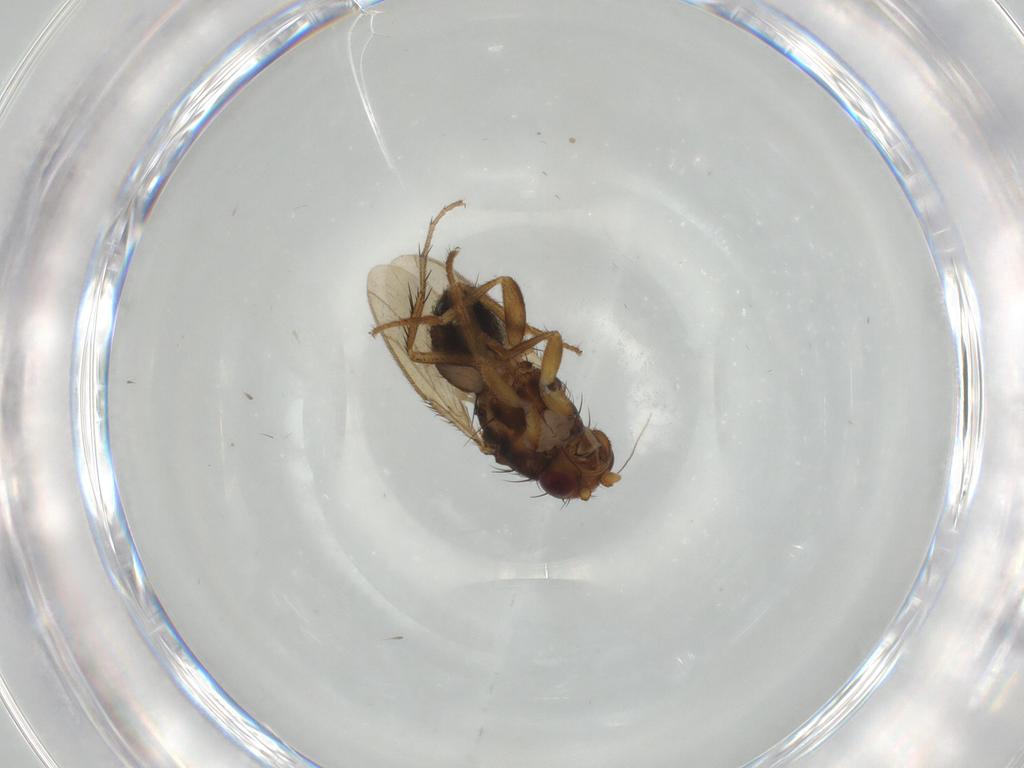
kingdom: Animalia
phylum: Arthropoda
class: Insecta
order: Diptera
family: Sphaeroceridae
